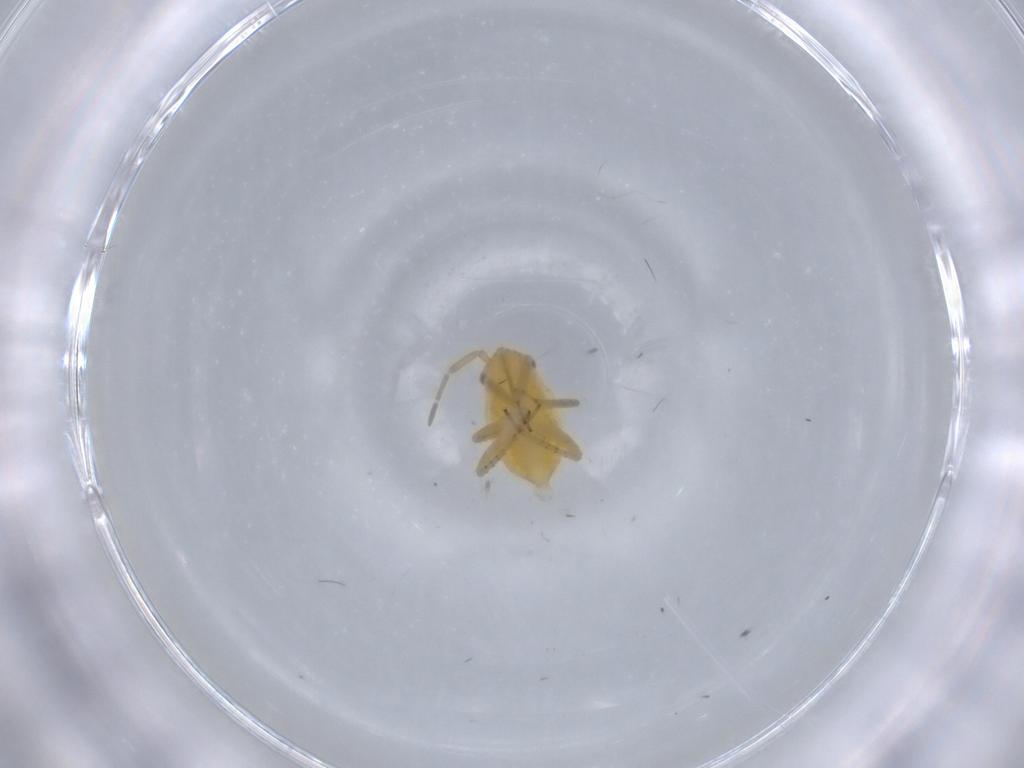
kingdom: Animalia
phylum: Arthropoda
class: Insecta
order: Hemiptera
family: Miridae
